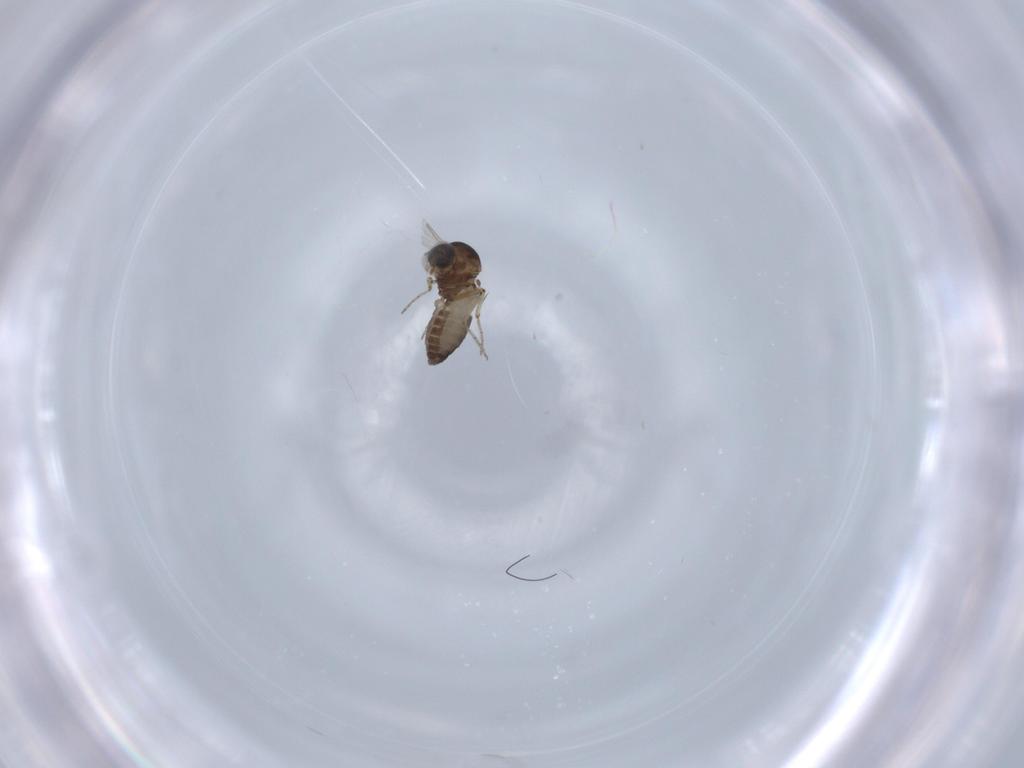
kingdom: Animalia
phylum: Arthropoda
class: Insecta
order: Diptera
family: Ceratopogonidae
